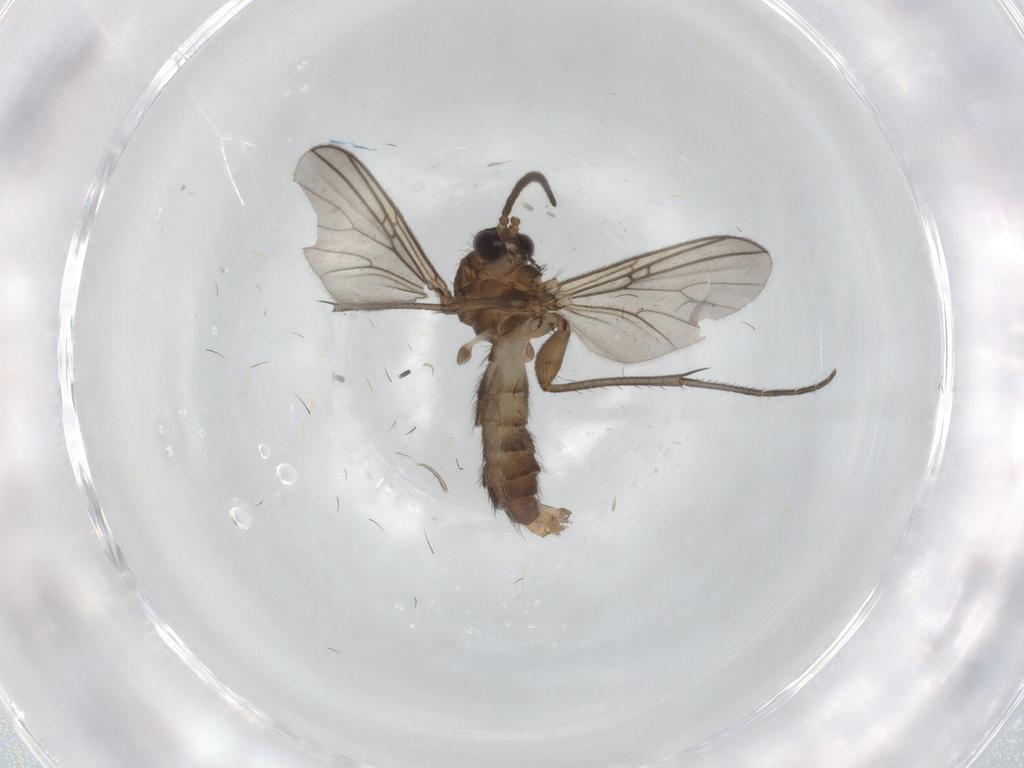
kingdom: Animalia
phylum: Arthropoda
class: Insecta
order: Diptera
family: Mycetophilidae
